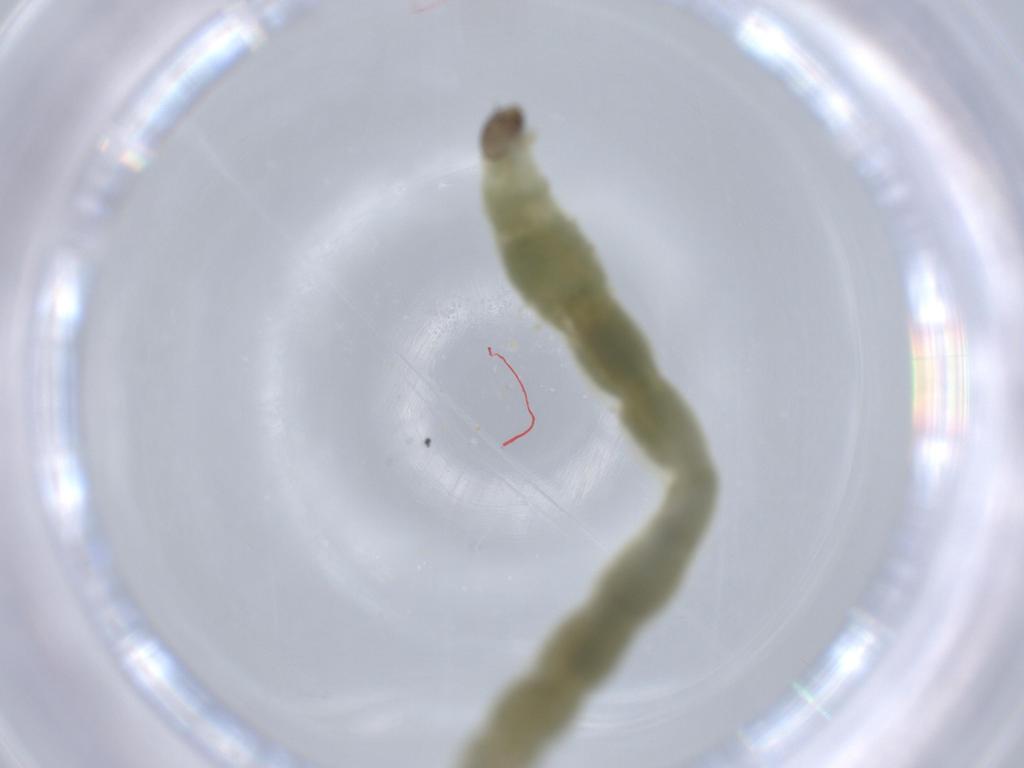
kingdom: Animalia
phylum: Arthropoda
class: Insecta
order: Diptera
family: Chironomidae
